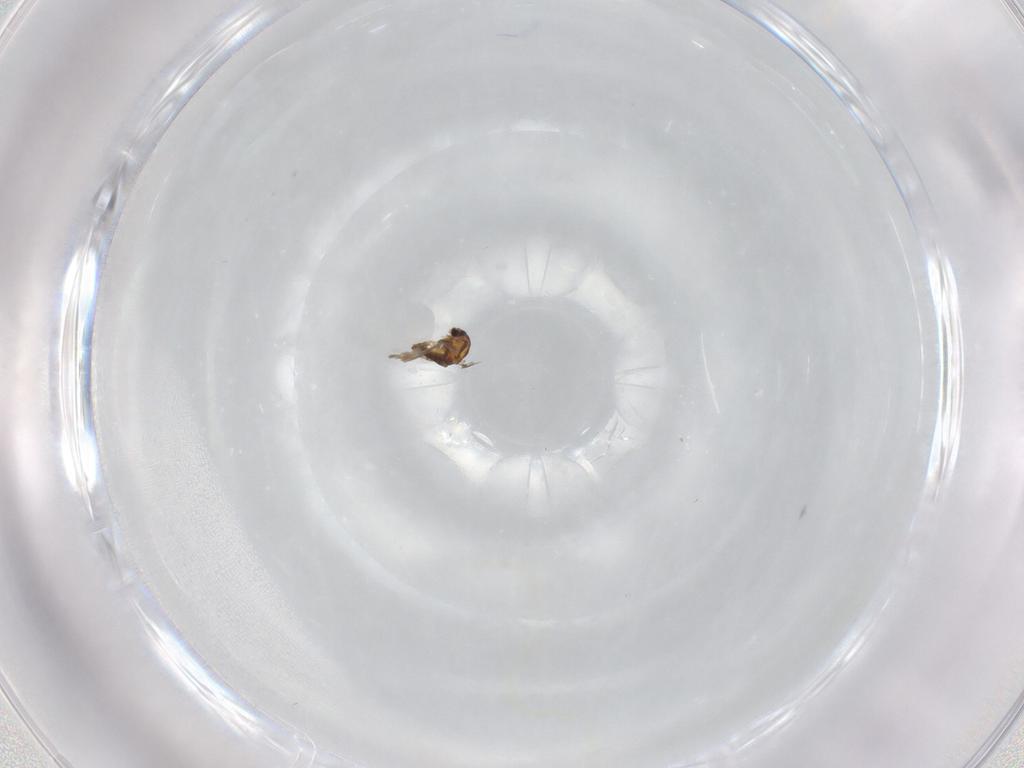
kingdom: Animalia
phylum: Arthropoda
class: Insecta
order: Diptera
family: Chironomidae
